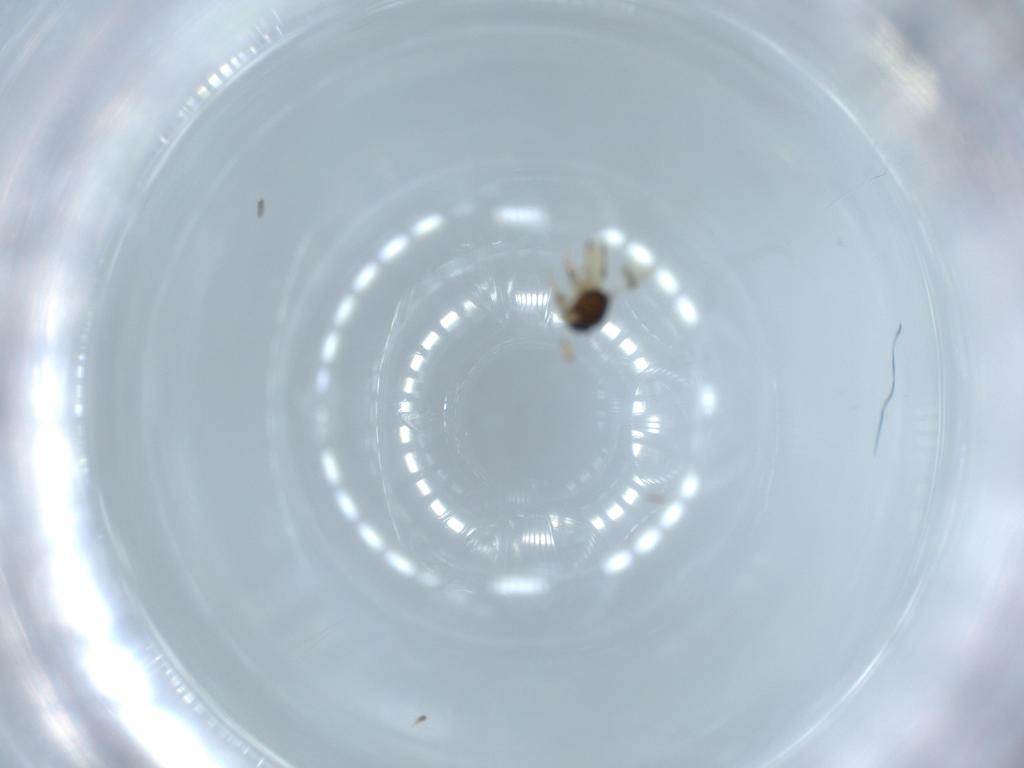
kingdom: Animalia
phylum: Arthropoda
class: Insecta
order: Hymenoptera
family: Scelionidae
